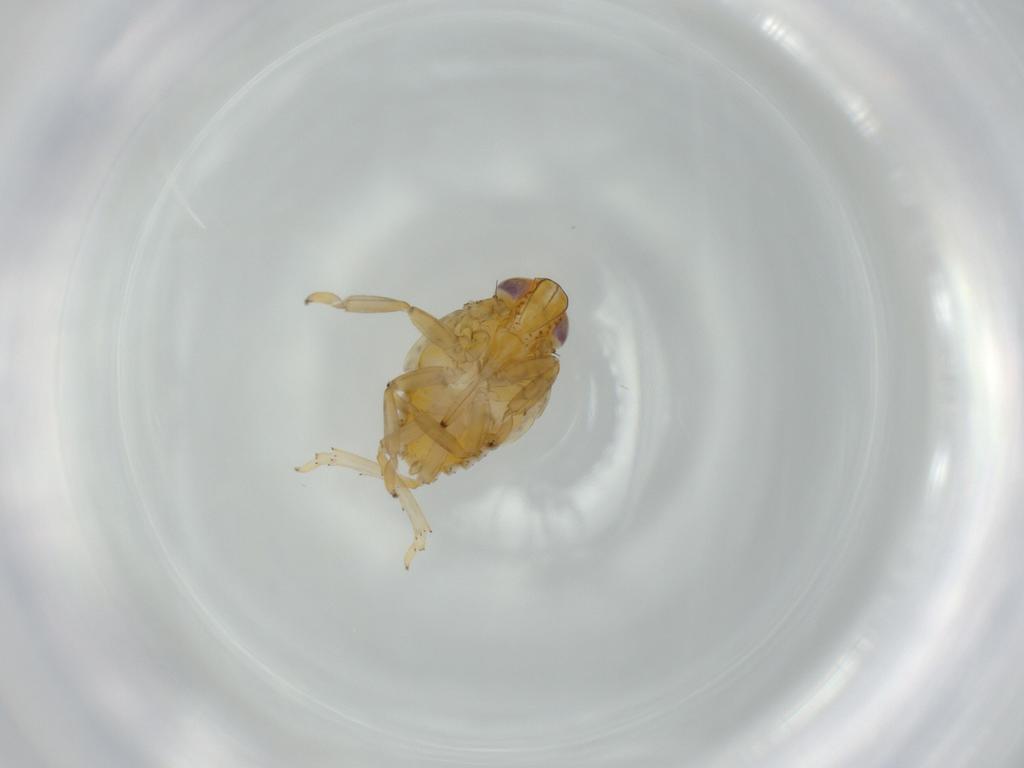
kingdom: Animalia
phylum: Arthropoda
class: Insecta
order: Hemiptera
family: Issidae
